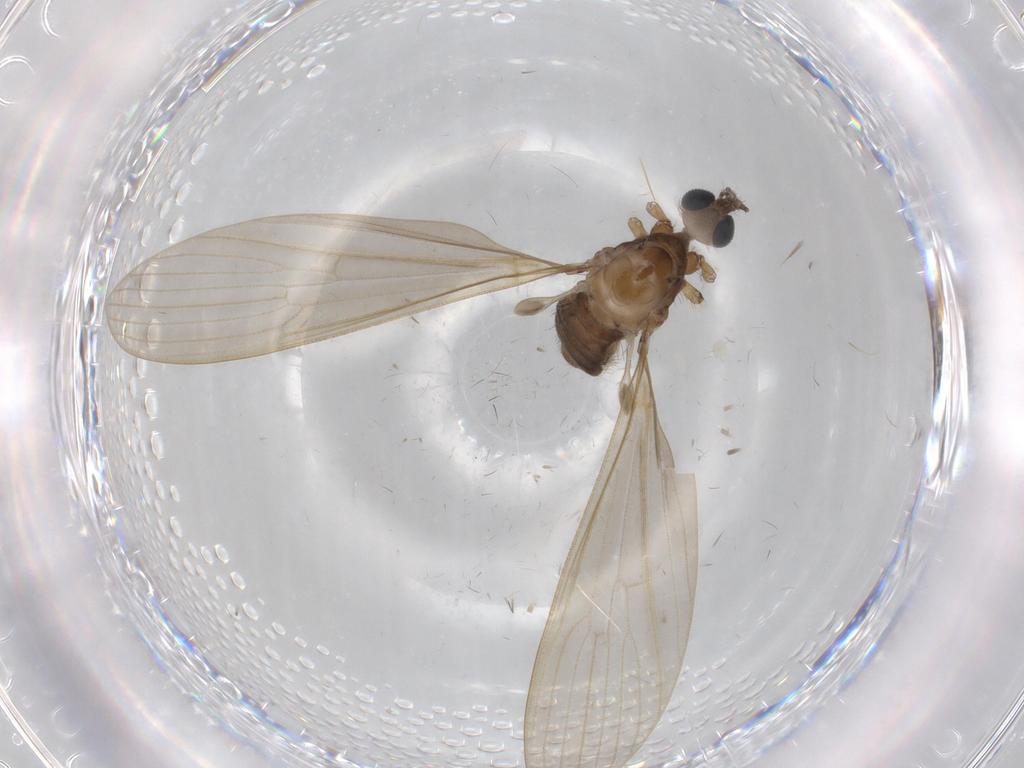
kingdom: Animalia
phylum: Arthropoda
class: Insecta
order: Diptera
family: Limoniidae
